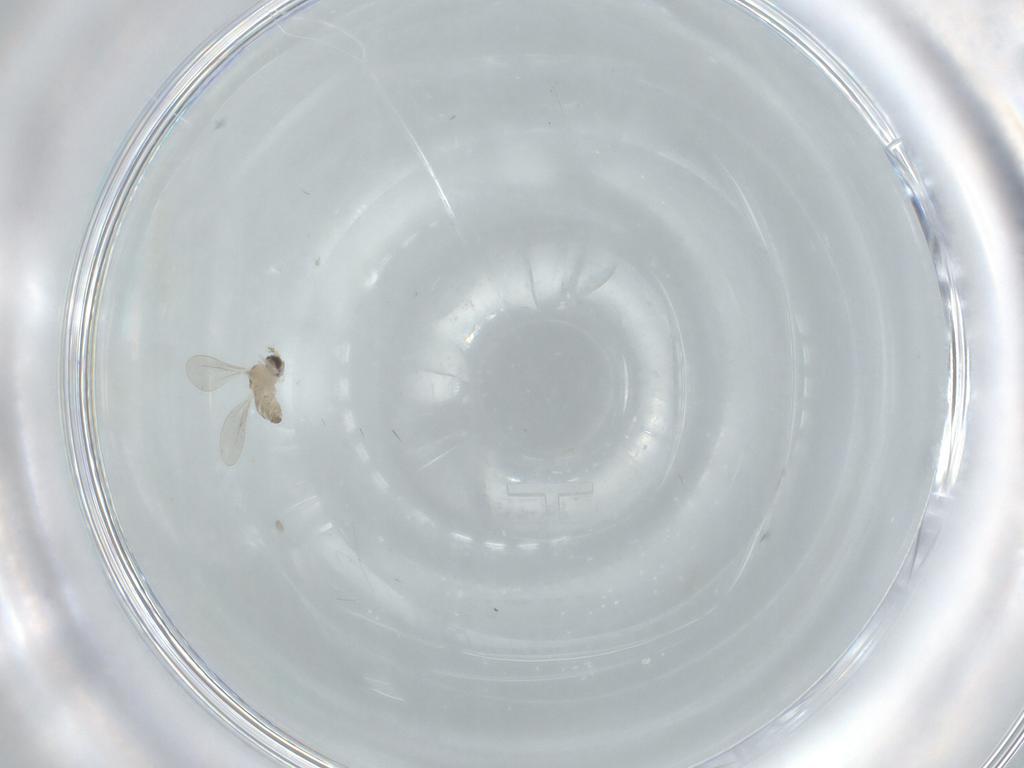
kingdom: Animalia
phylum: Arthropoda
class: Insecta
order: Diptera
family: Cecidomyiidae
